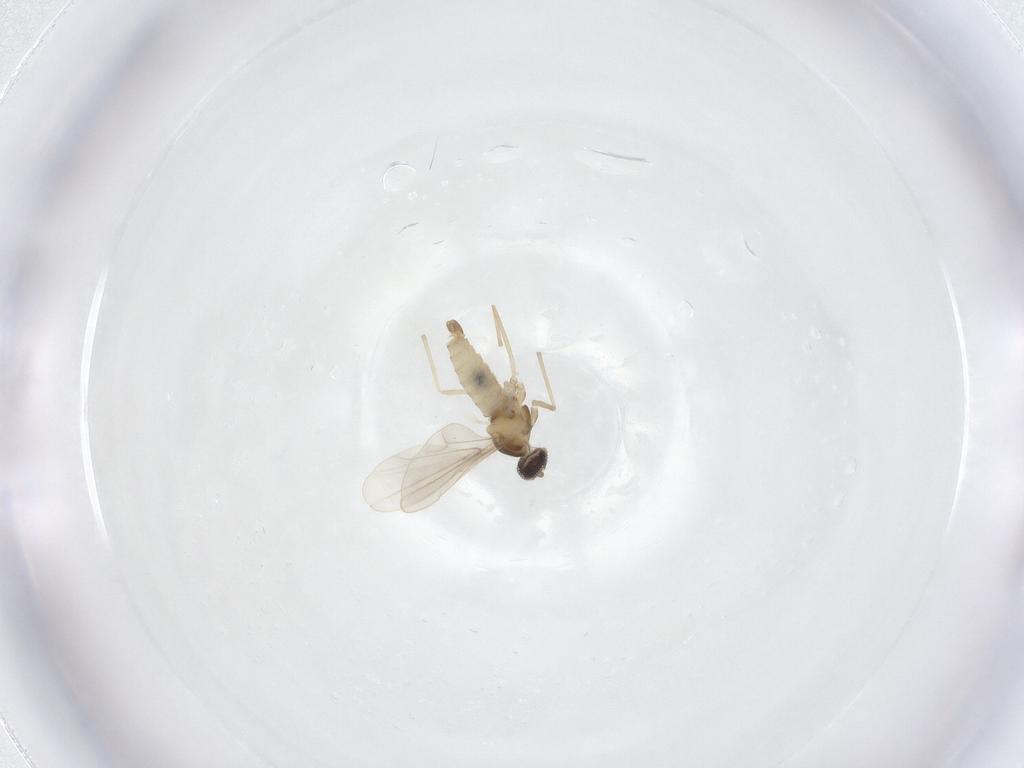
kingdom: Animalia
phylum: Arthropoda
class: Insecta
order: Diptera
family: Cecidomyiidae
